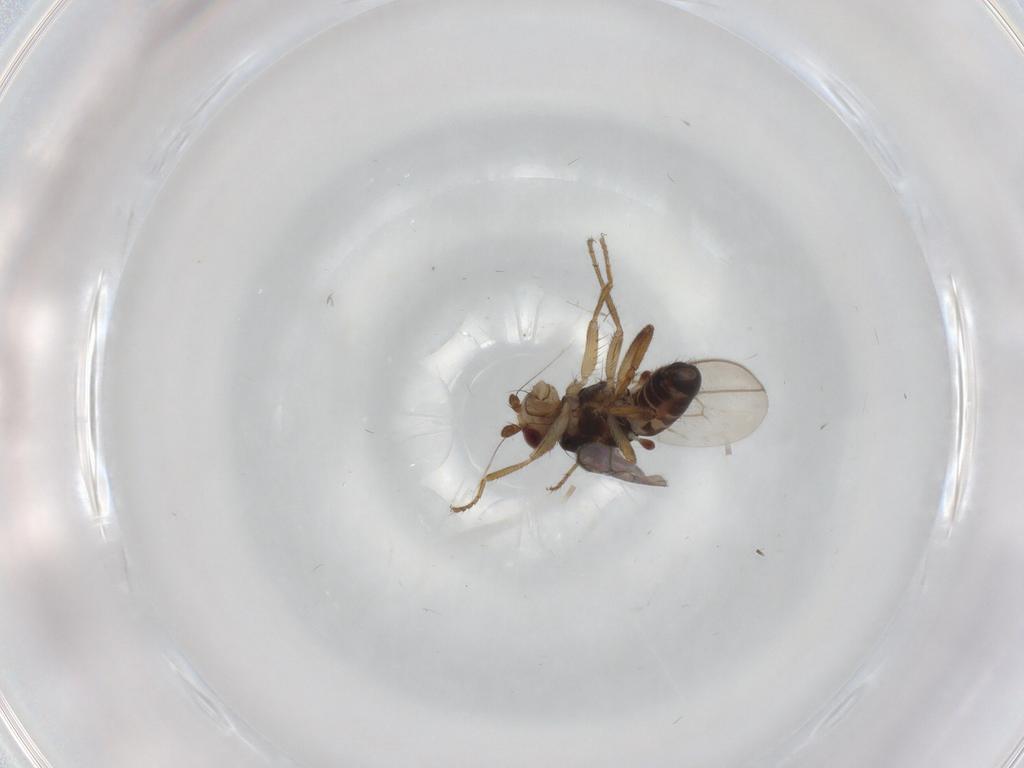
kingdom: Animalia
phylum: Arthropoda
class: Insecta
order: Diptera
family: Sphaeroceridae
